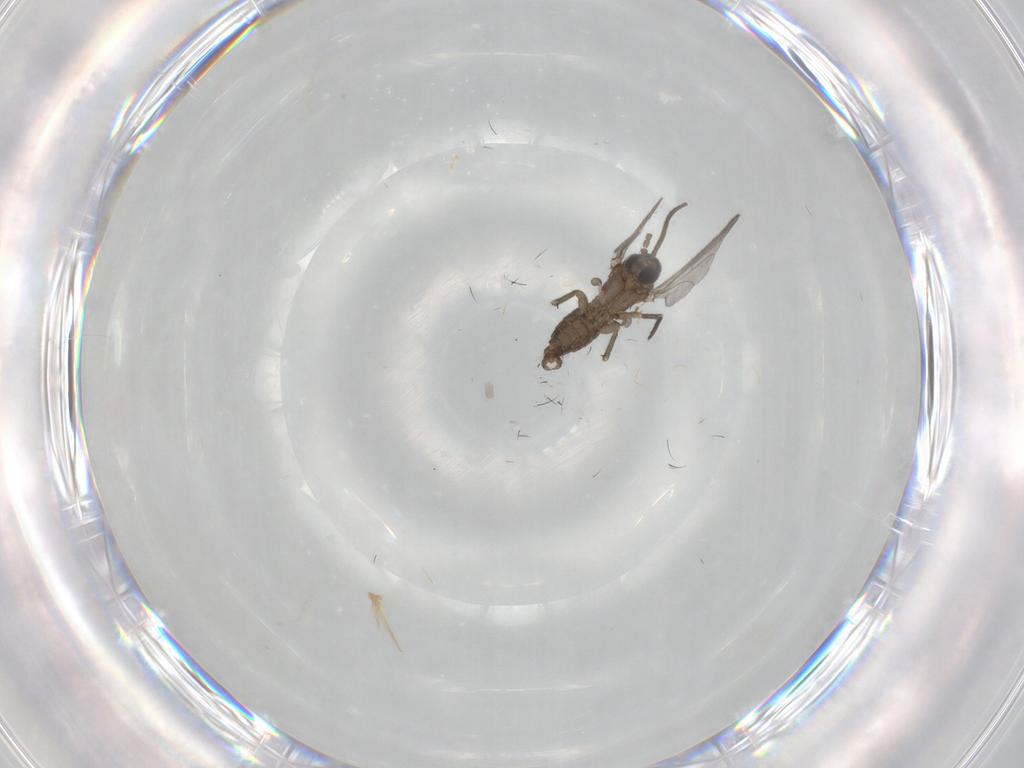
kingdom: Animalia
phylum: Arthropoda
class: Insecta
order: Diptera
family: Sciaridae
